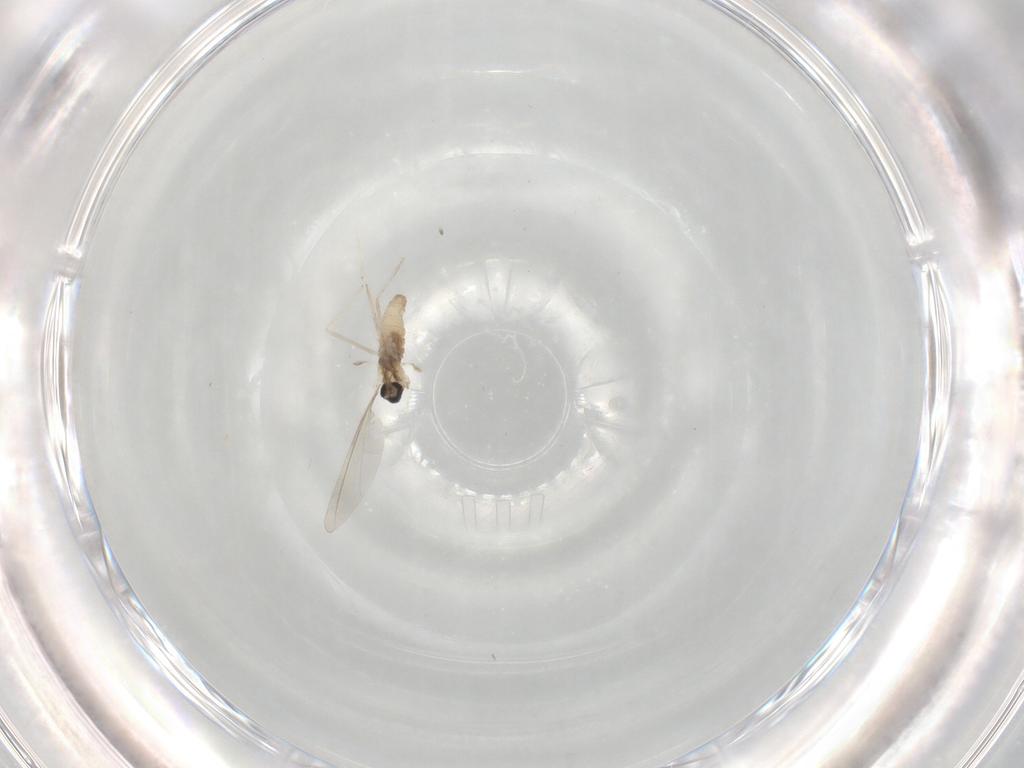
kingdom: Animalia
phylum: Arthropoda
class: Insecta
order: Diptera
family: Cecidomyiidae
